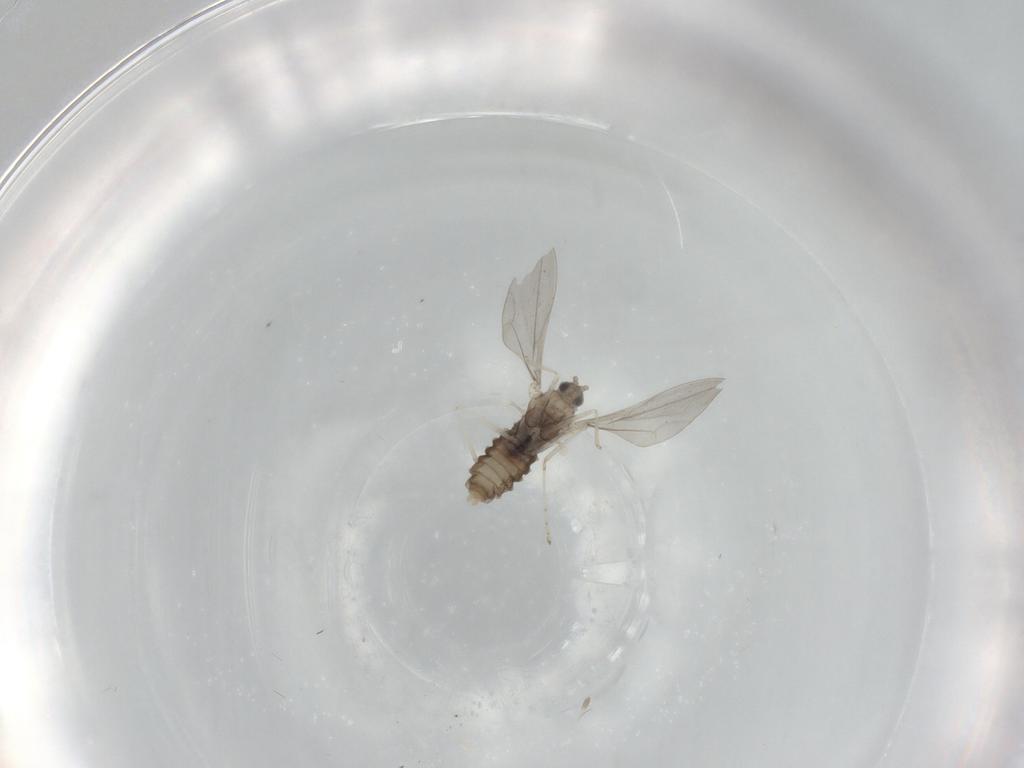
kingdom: Animalia
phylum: Arthropoda
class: Insecta
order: Diptera
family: Cecidomyiidae
